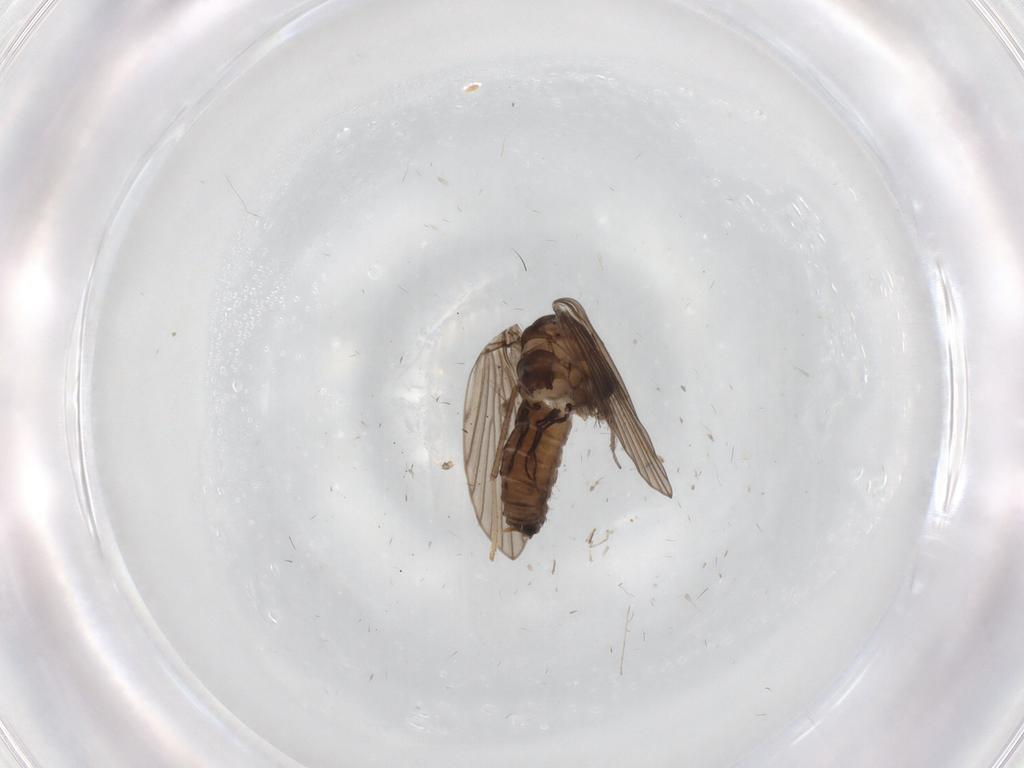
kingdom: Animalia
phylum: Arthropoda
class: Insecta
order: Diptera
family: Psychodidae
